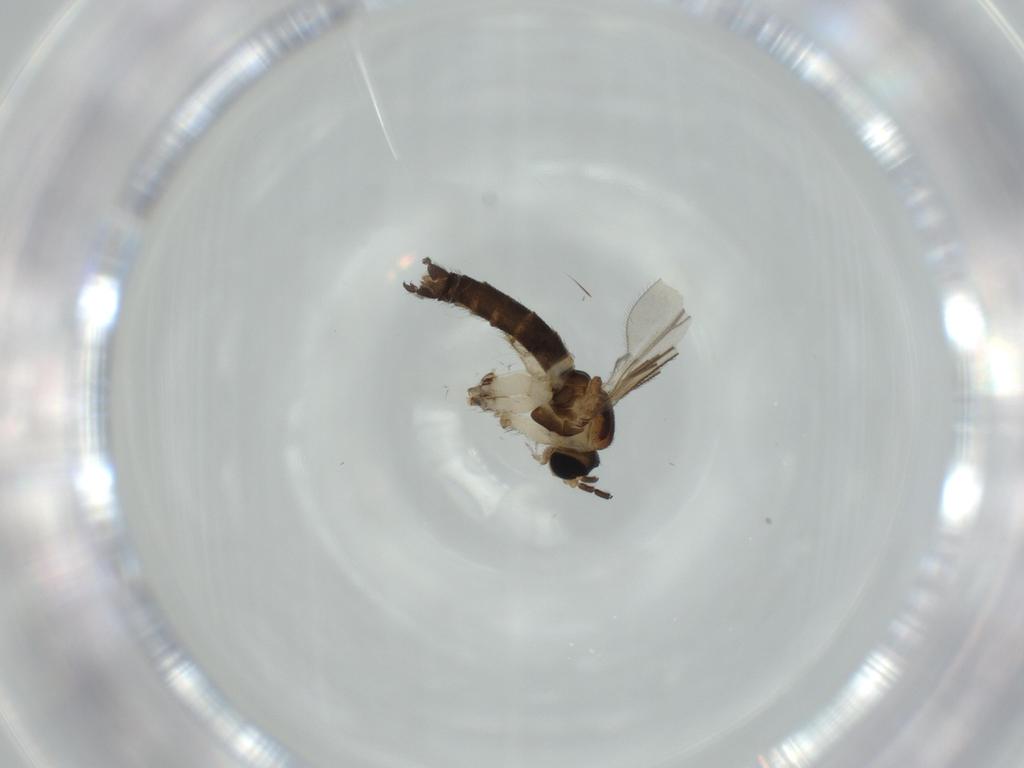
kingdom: Animalia
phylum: Arthropoda
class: Insecta
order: Diptera
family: Sciaridae
